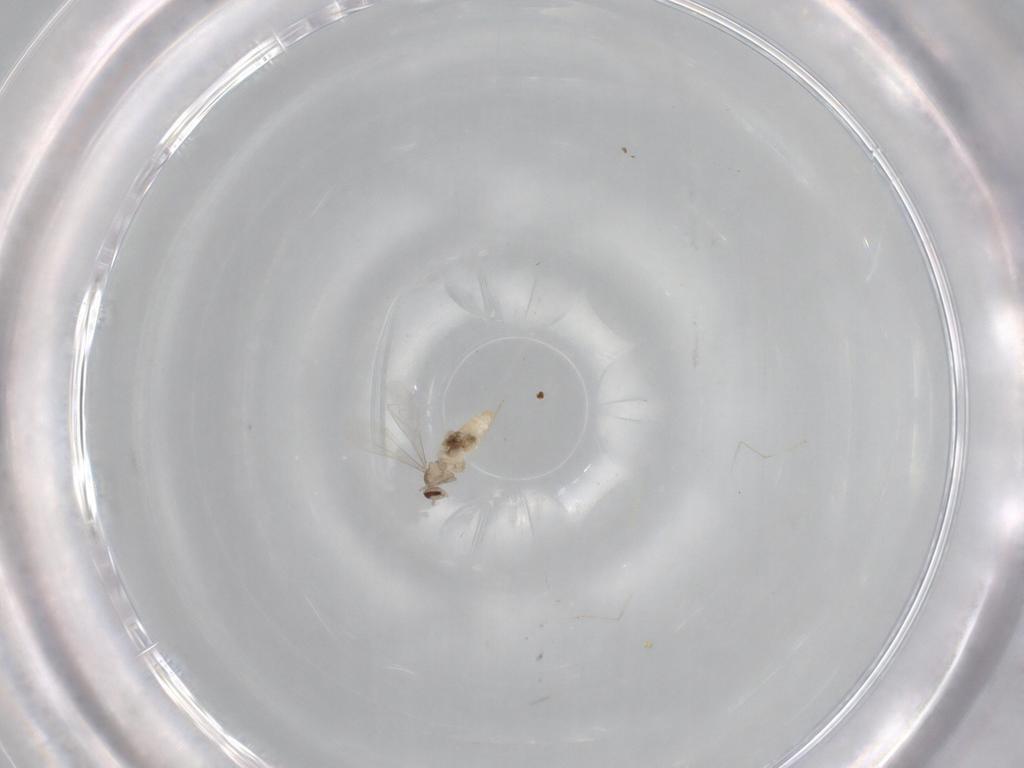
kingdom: Animalia
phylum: Arthropoda
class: Insecta
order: Diptera
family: Cecidomyiidae
